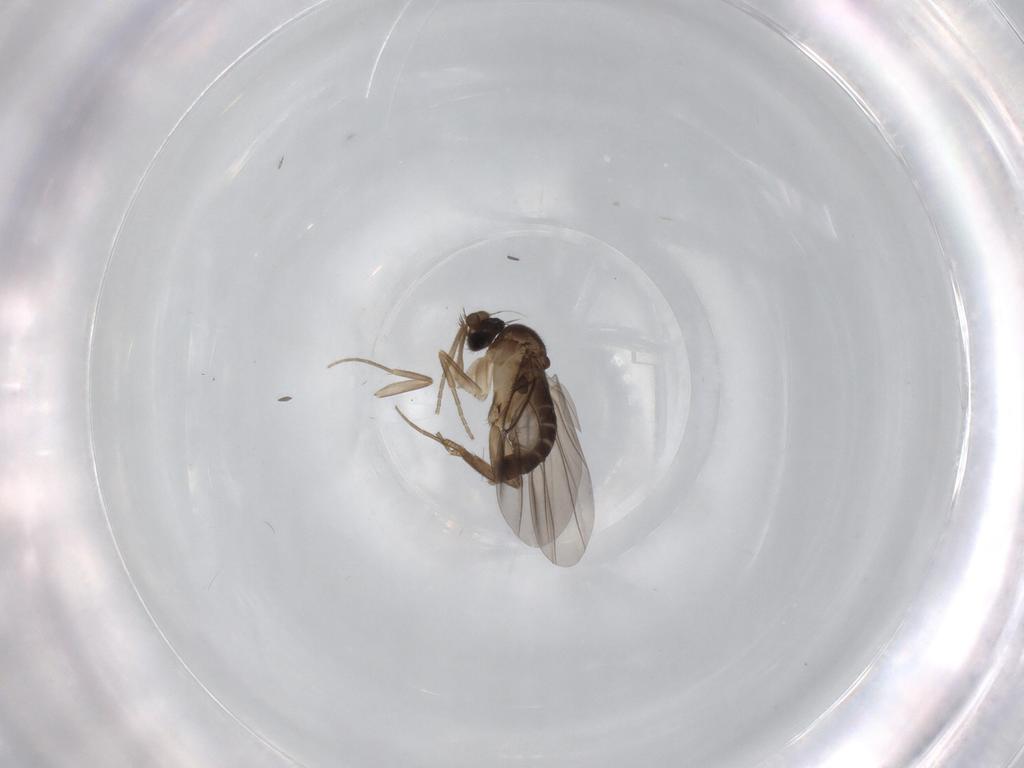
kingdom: Animalia
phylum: Arthropoda
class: Insecta
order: Diptera
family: Phoridae
